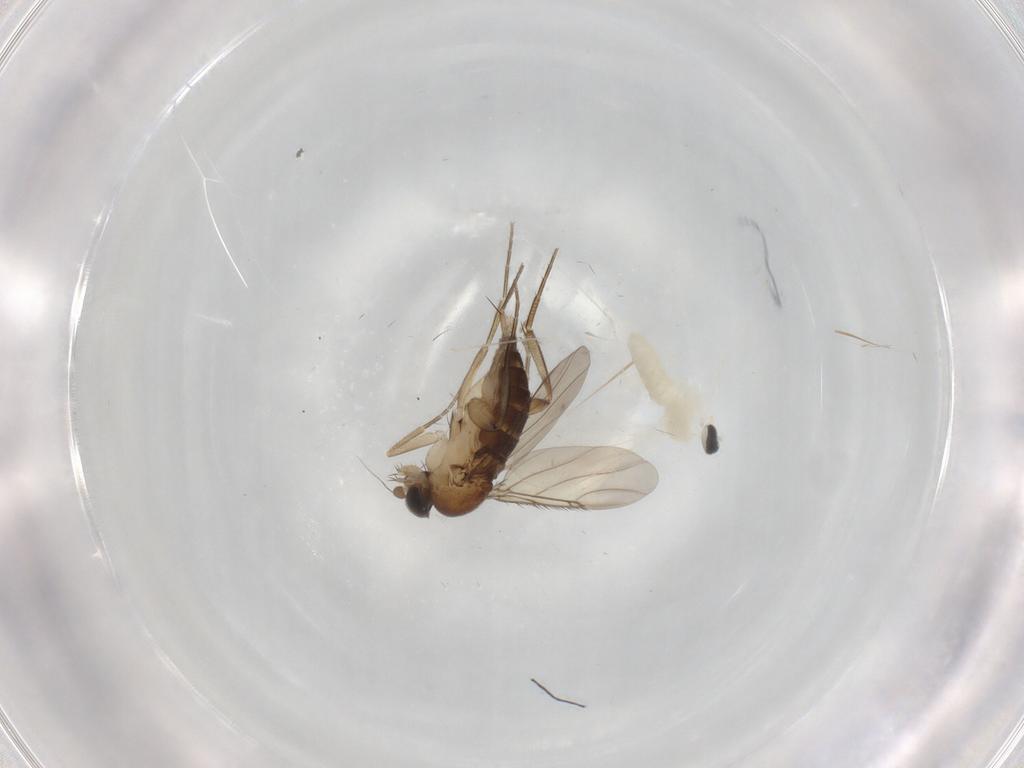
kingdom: Animalia
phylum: Arthropoda
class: Insecta
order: Diptera
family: Phoridae
